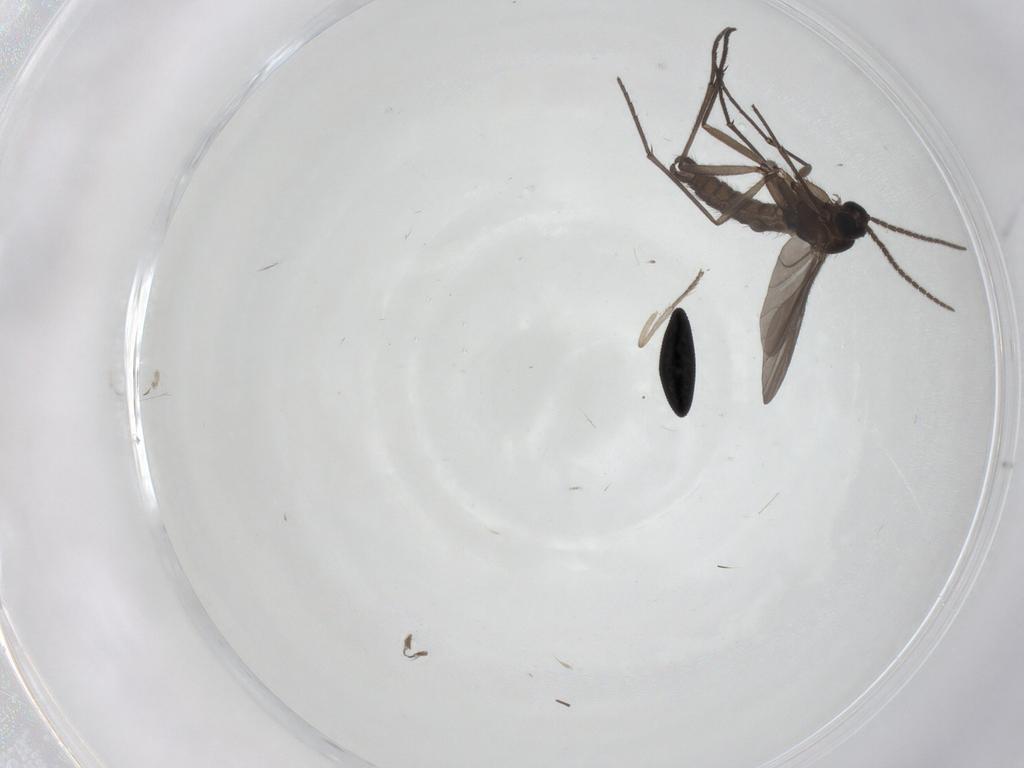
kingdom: Animalia
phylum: Arthropoda
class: Insecta
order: Diptera
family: Sciaridae
